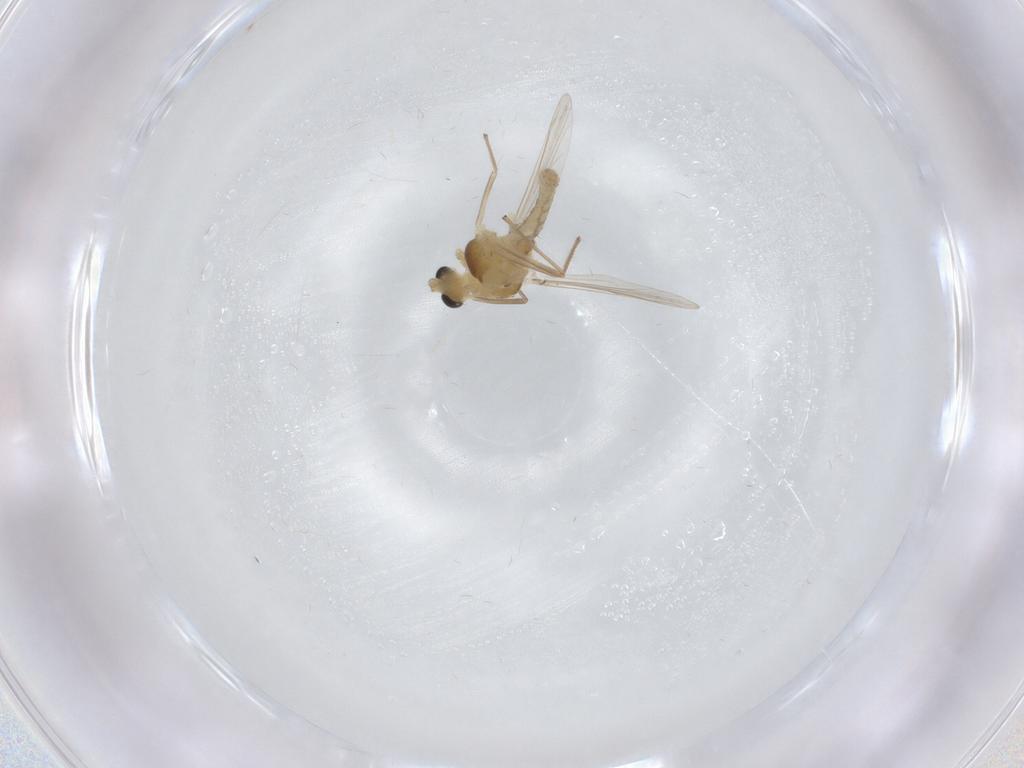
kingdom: Animalia
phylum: Arthropoda
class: Insecta
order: Diptera
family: Chironomidae
